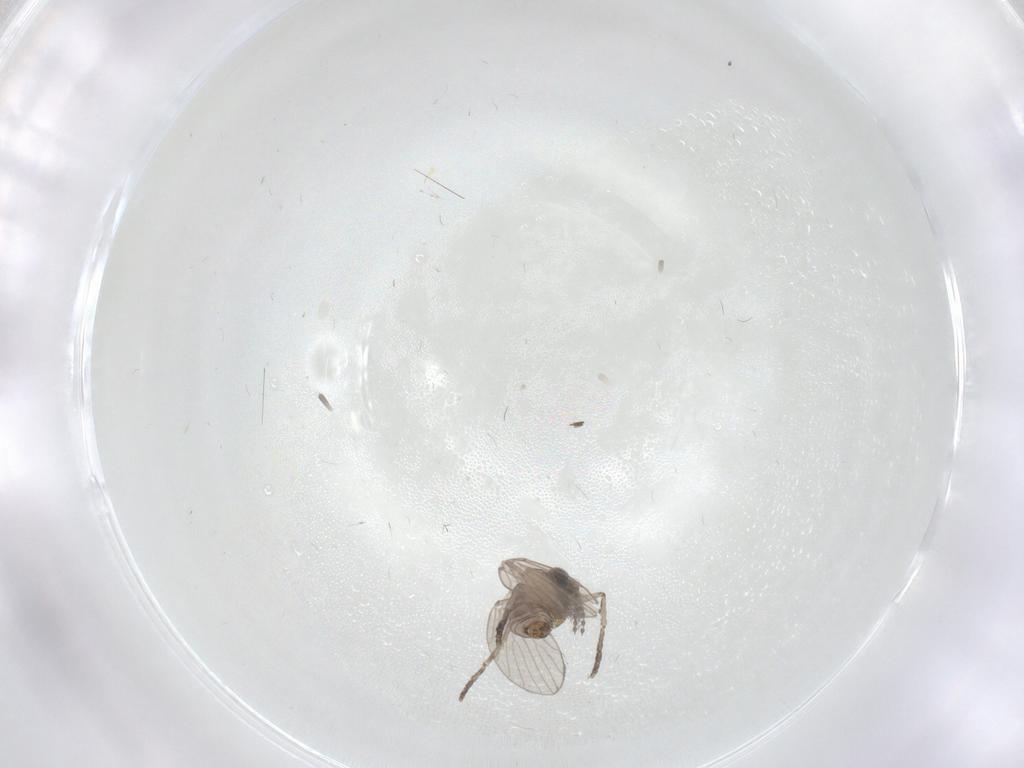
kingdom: Animalia
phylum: Arthropoda
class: Insecta
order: Diptera
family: Psychodidae
